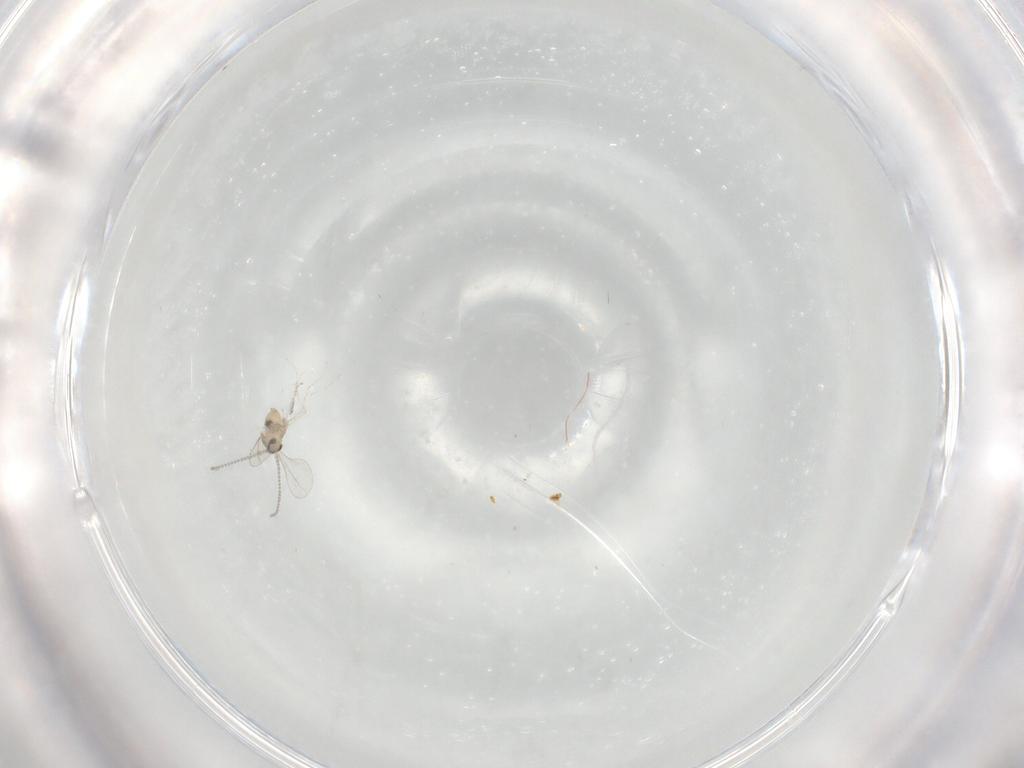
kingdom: Animalia
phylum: Arthropoda
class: Insecta
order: Diptera
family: Cecidomyiidae
